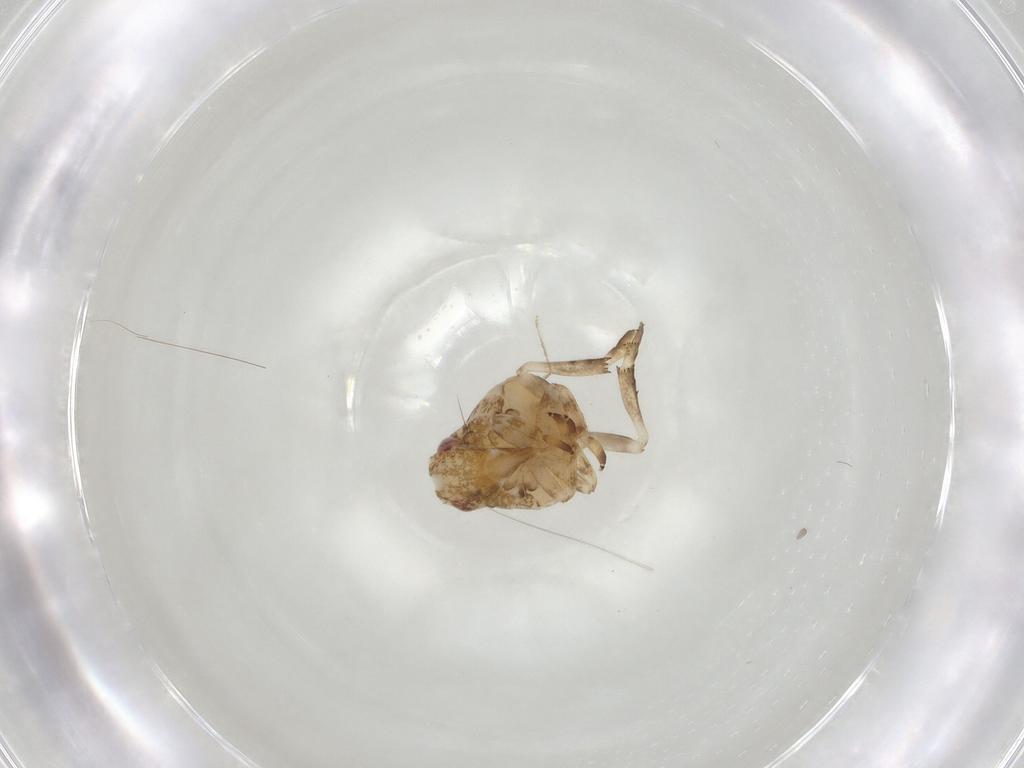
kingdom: Animalia
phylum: Arthropoda
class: Insecta
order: Hemiptera
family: Ricaniidae
